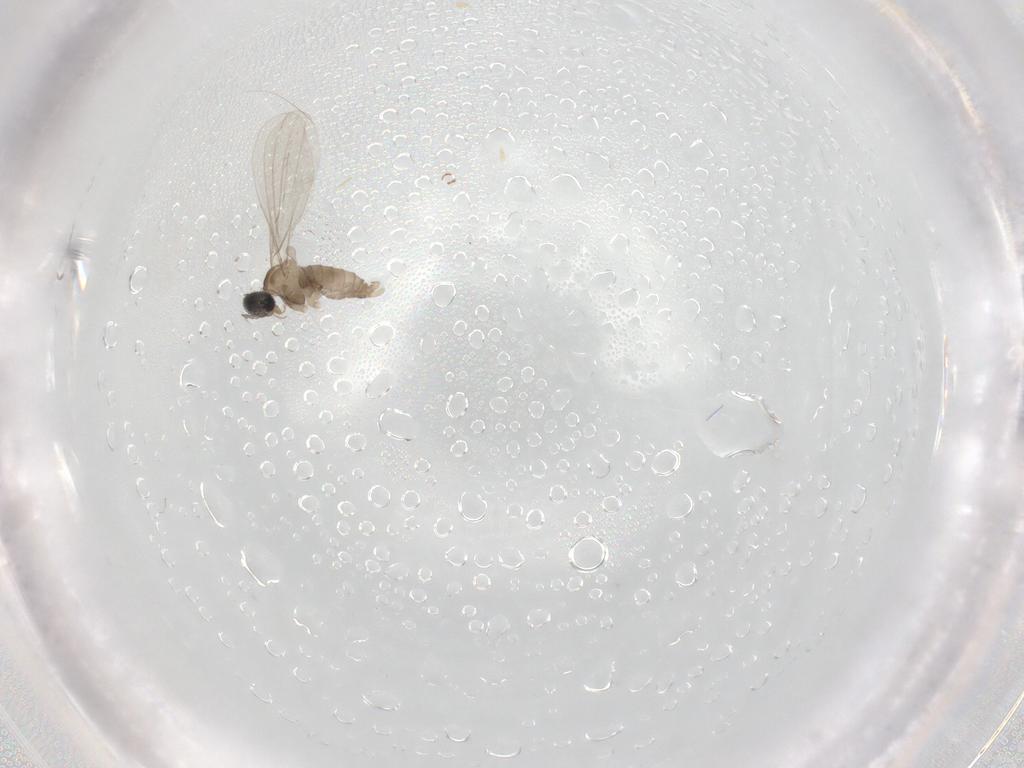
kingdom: Animalia
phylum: Arthropoda
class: Insecta
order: Diptera
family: Cecidomyiidae
